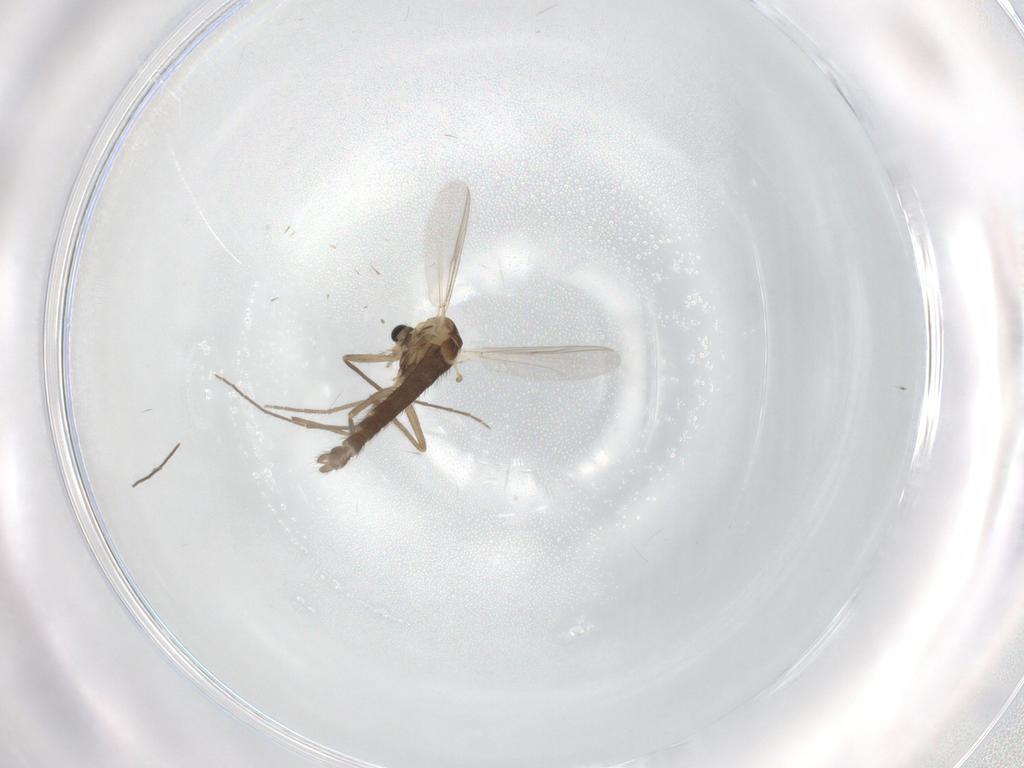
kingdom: Animalia
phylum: Arthropoda
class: Insecta
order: Diptera
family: Chironomidae
